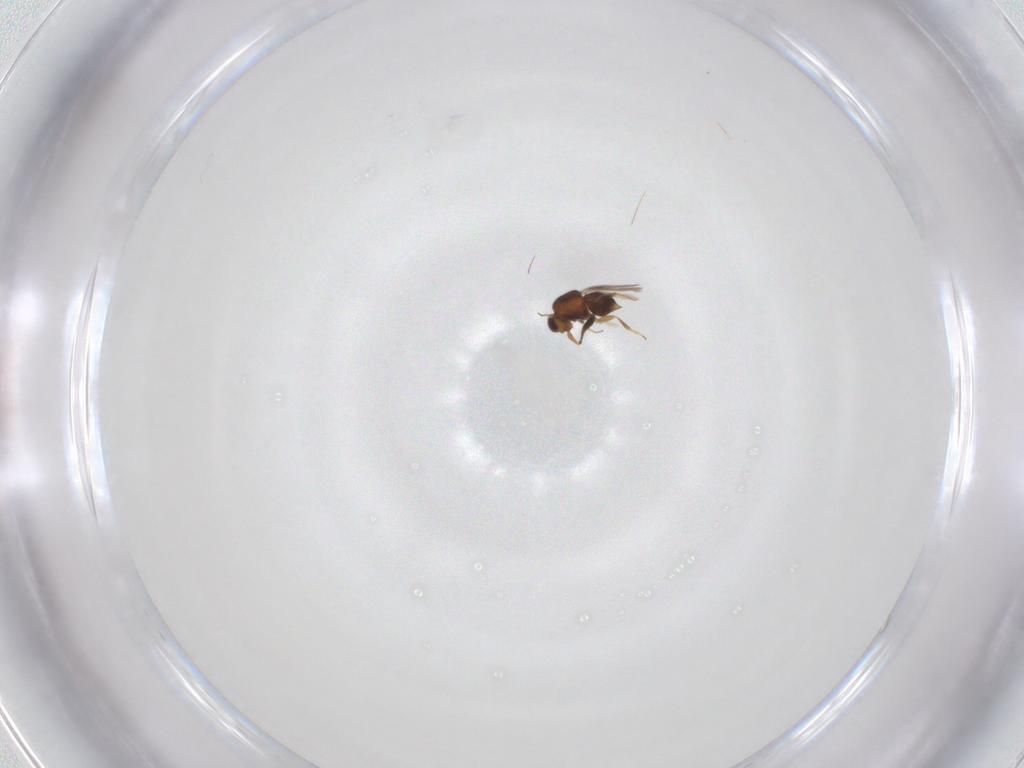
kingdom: Animalia
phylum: Arthropoda
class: Insecta
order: Hymenoptera
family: Ceraphronidae
